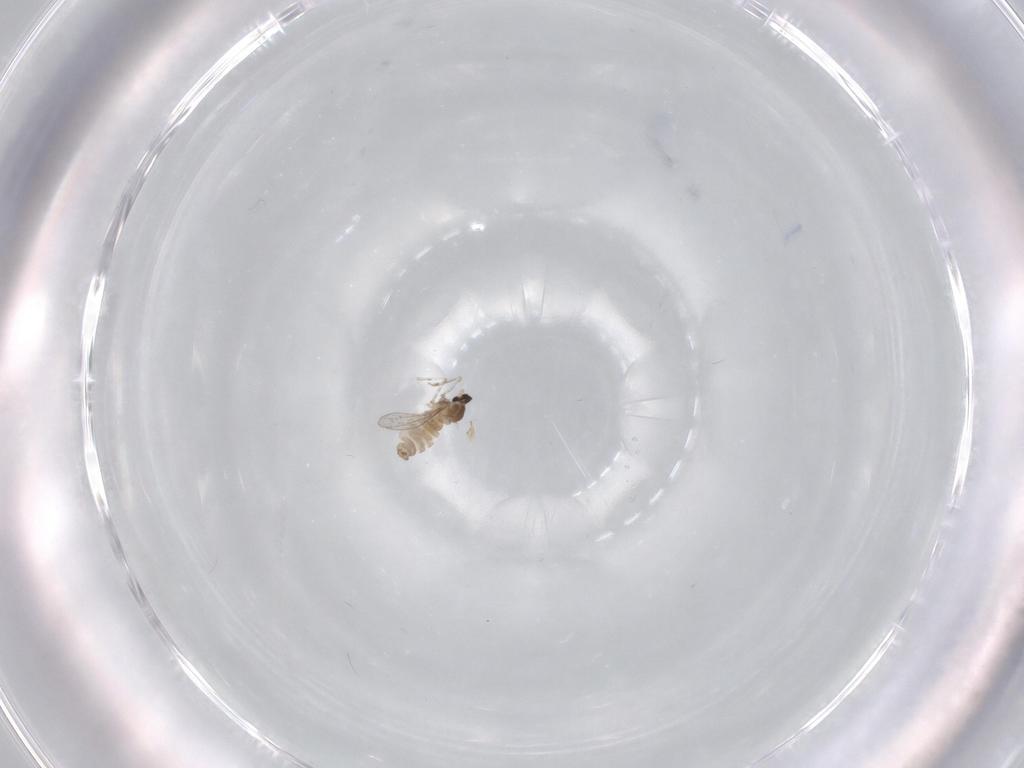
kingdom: Animalia
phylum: Arthropoda
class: Insecta
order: Diptera
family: Cecidomyiidae
